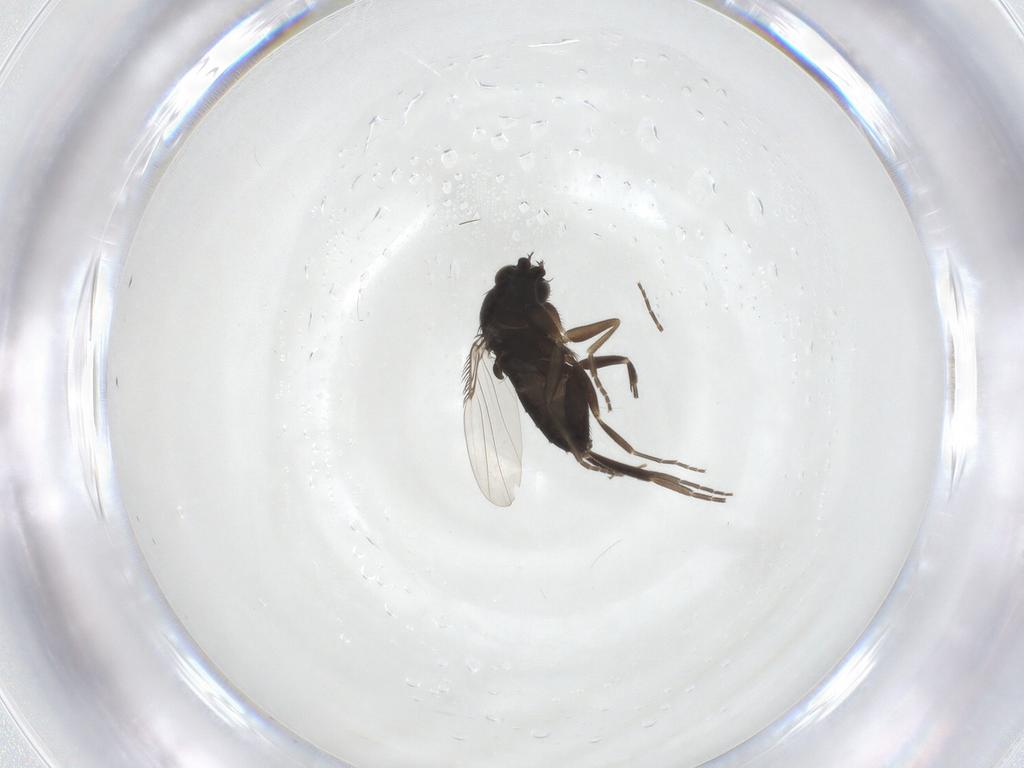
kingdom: Animalia
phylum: Arthropoda
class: Insecta
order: Diptera
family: Phoridae
